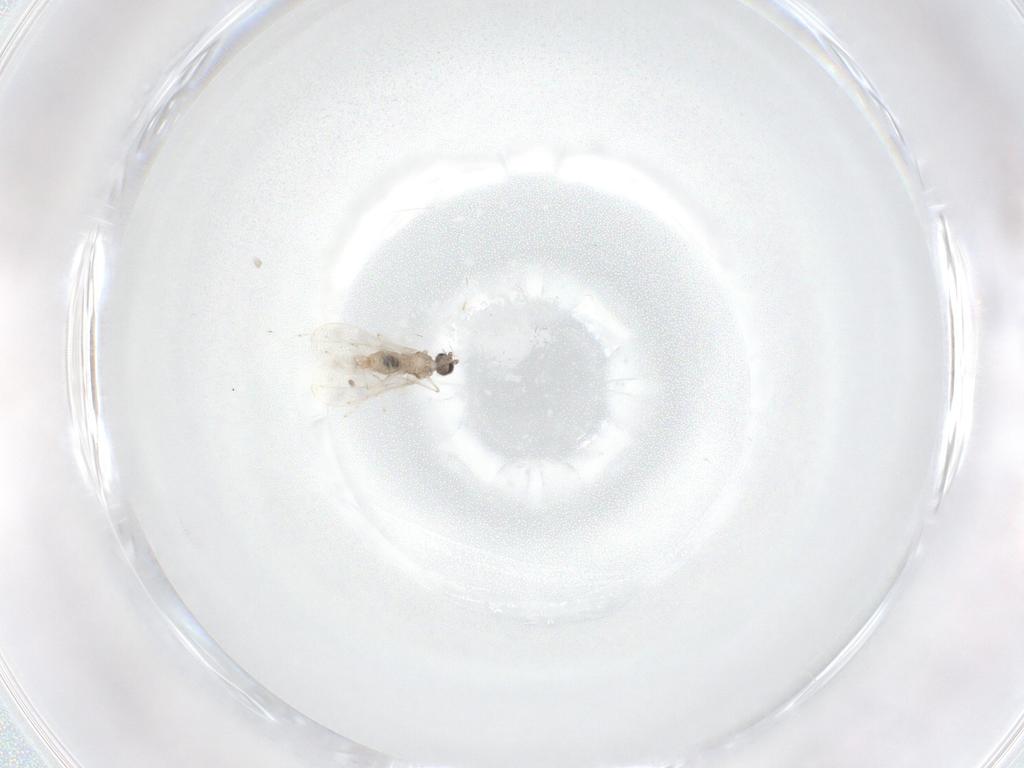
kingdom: Animalia
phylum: Arthropoda
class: Insecta
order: Diptera
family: Cecidomyiidae
